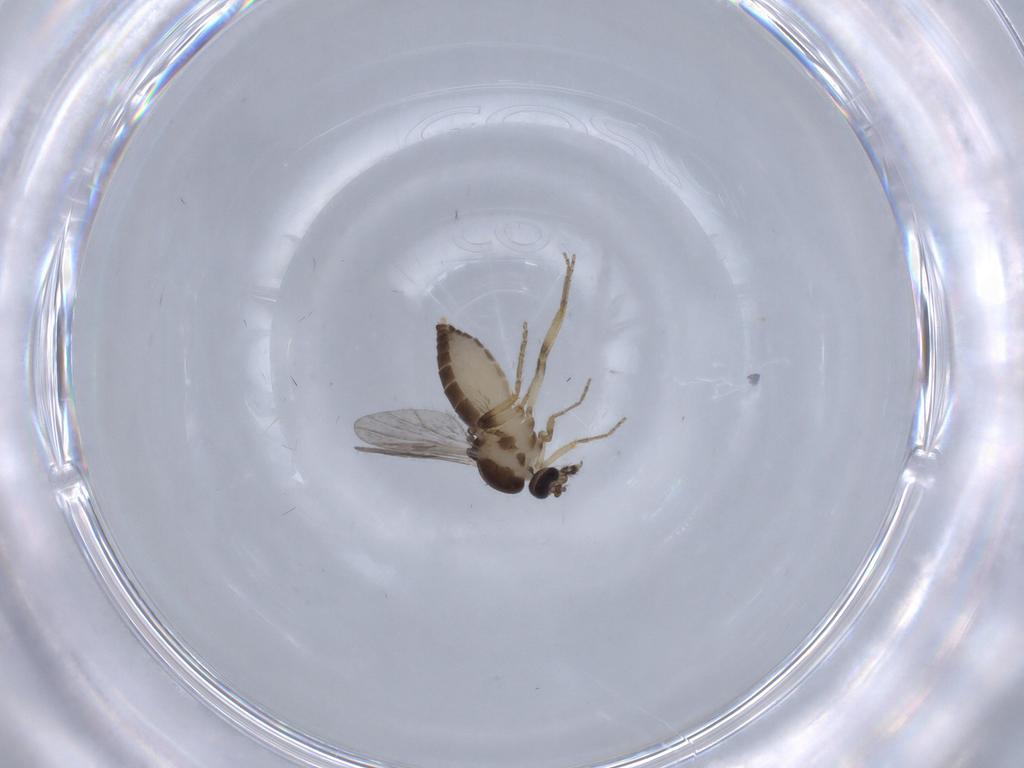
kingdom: Animalia
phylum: Arthropoda
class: Insecta
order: Diptera
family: Ceratopogonidae
